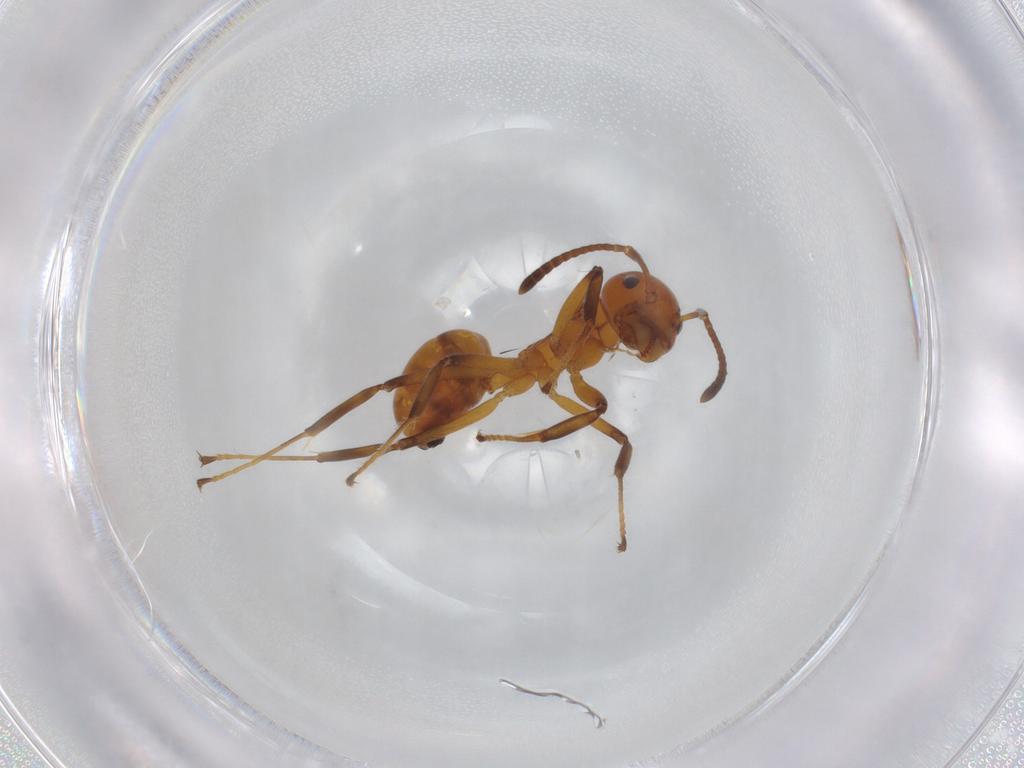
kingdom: Animalia
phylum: Arthropoda
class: Insecta
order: Hymenoptera
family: Formicidae
